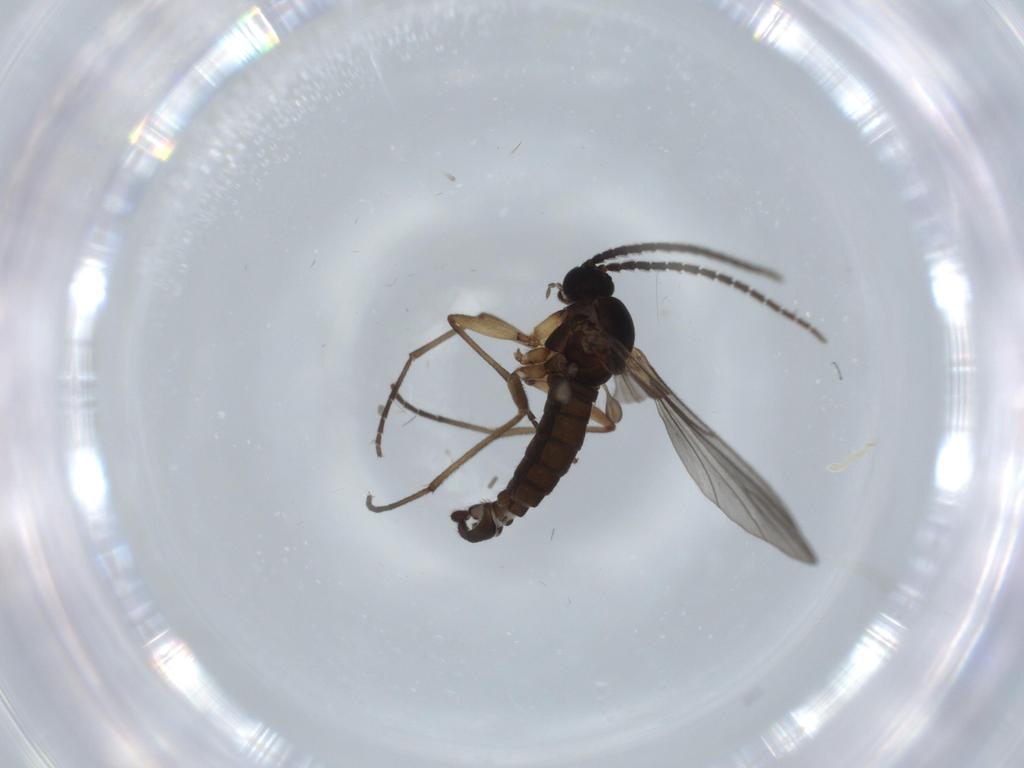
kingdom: Animalia
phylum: Arthropoda
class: Insecta
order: Diptera
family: Sciaridae
